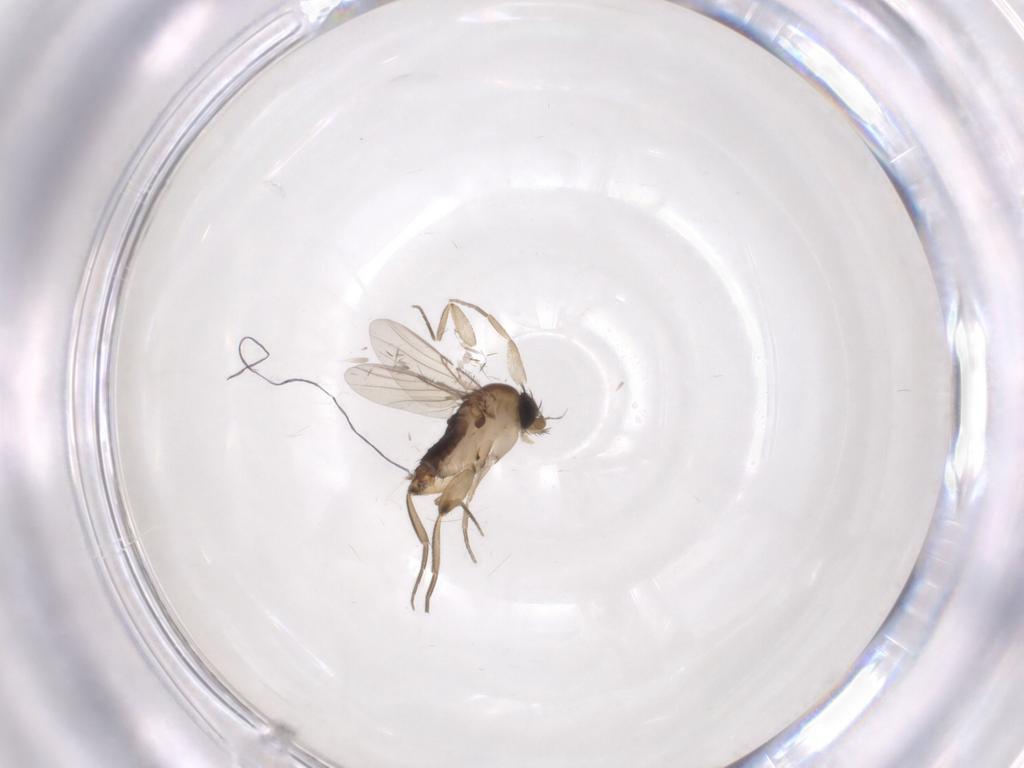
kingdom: Animalia
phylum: Arthropoda
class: Insecta
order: Diptera
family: Phoridae
